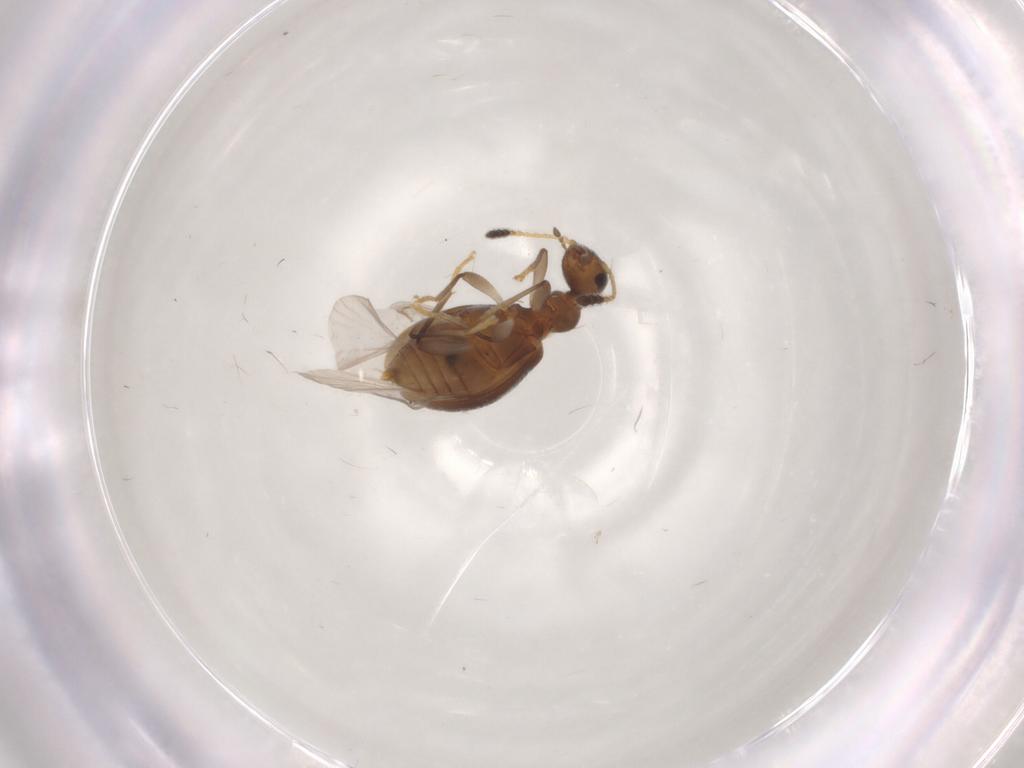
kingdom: Animalia
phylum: Arthropoda
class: Insecta
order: Coleoptera
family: Anthicidae
